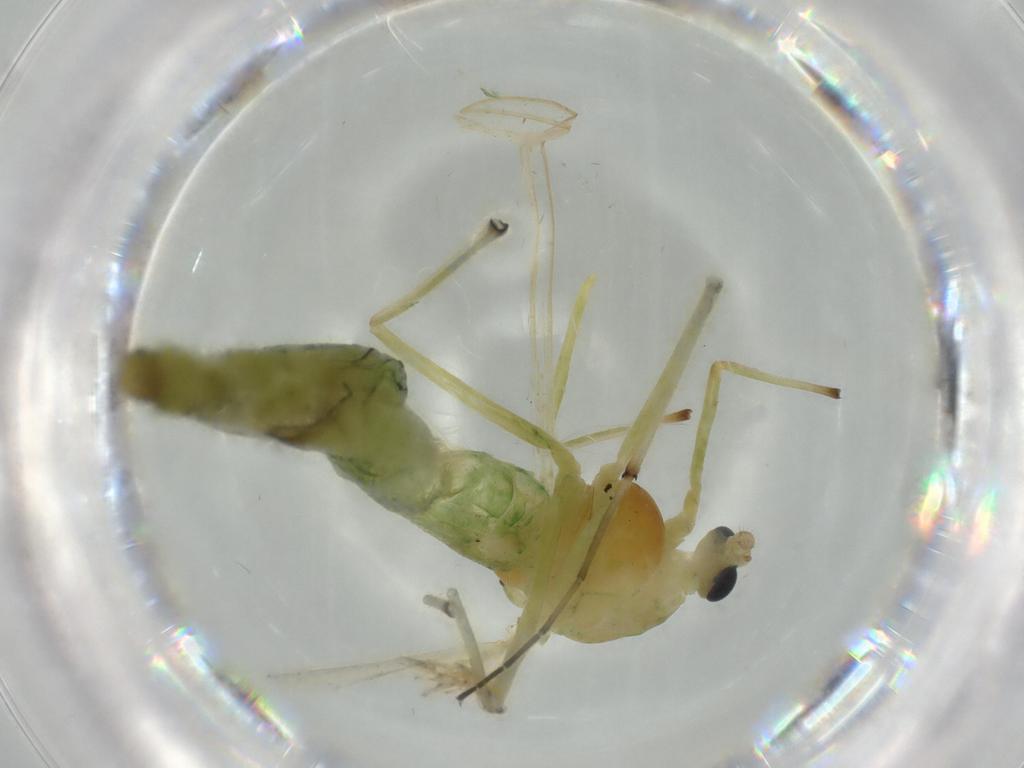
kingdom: Animalia
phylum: Arthropoda
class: Insecta
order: Diptera
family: Chironomidae
